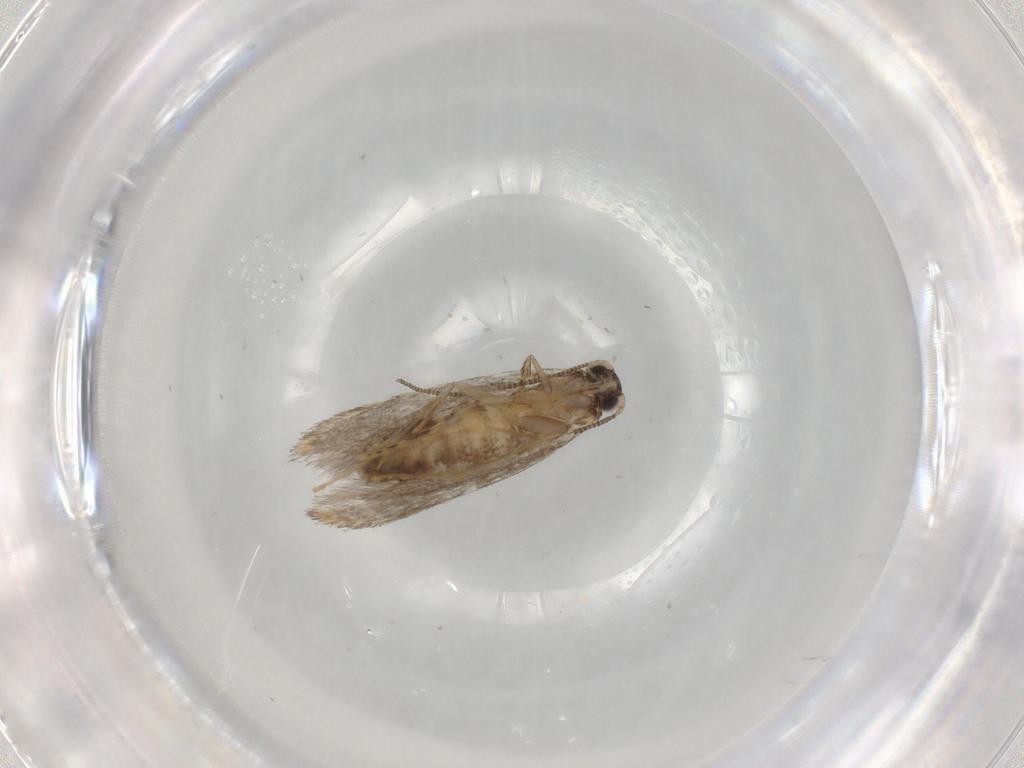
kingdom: Animalia
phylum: Arthropoda
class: Insecta
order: Lepidoptera
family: Tineidae
